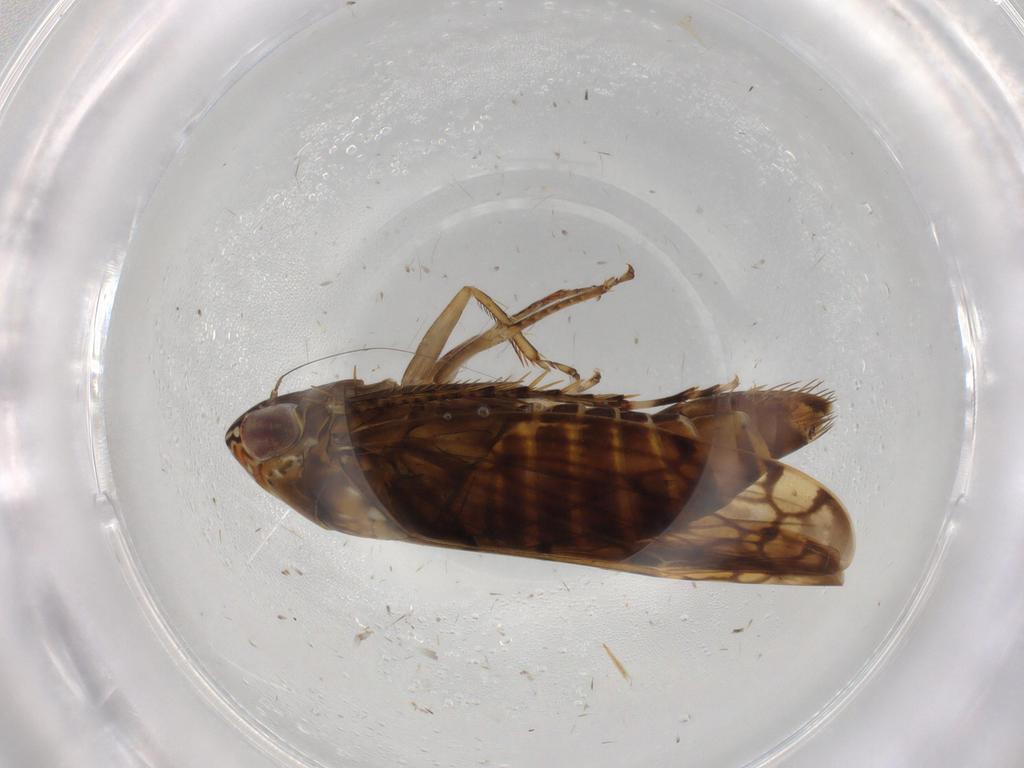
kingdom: Animalia
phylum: Arthropoda
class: Insecta
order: Hemiptera
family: Cicadellidae
